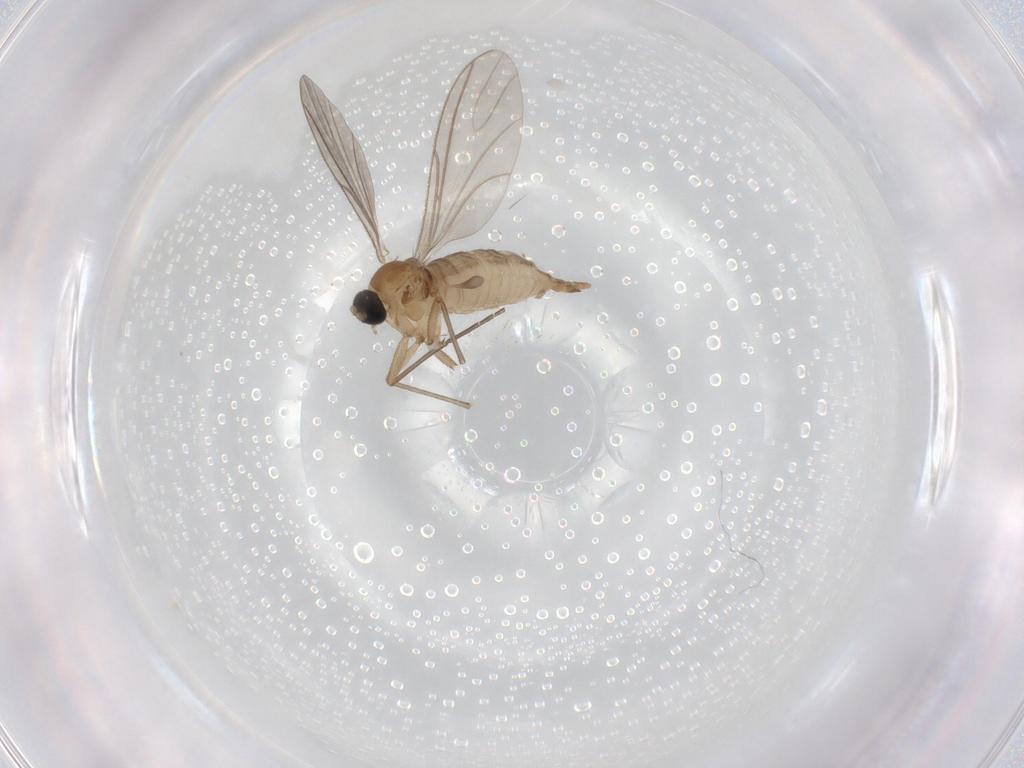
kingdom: Animalia
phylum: Arthropoda
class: Insecta
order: Diptera
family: Sciaridae
